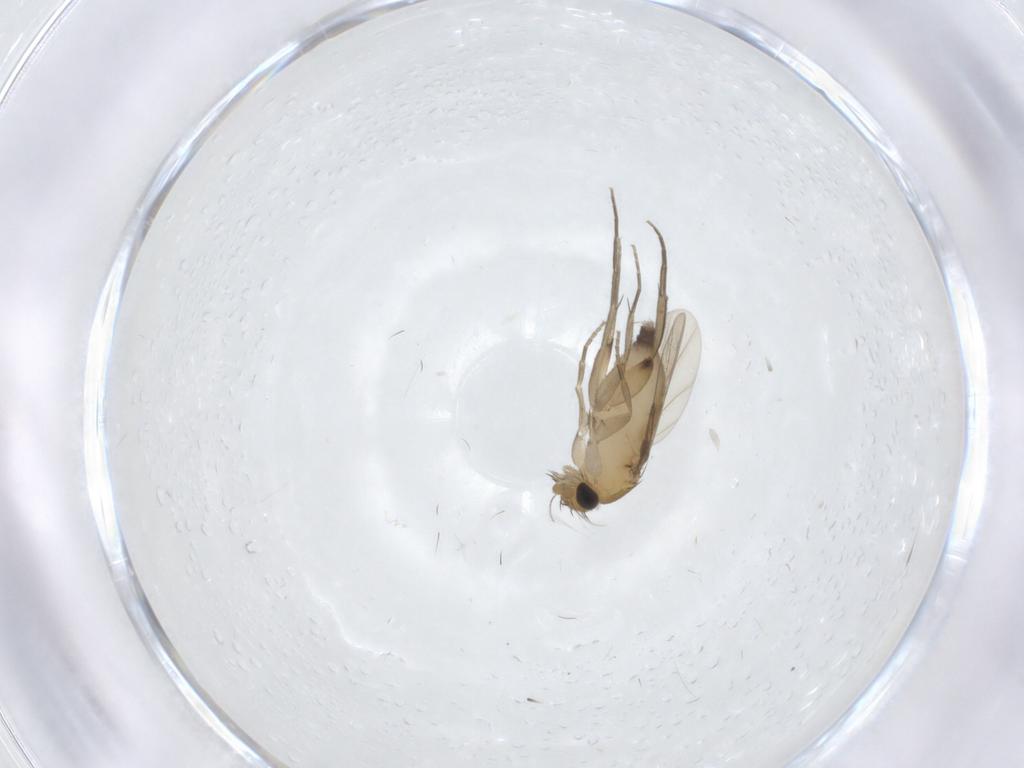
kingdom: Animalia
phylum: Arthropoda
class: Insecta
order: Diptera
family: Phoridae
